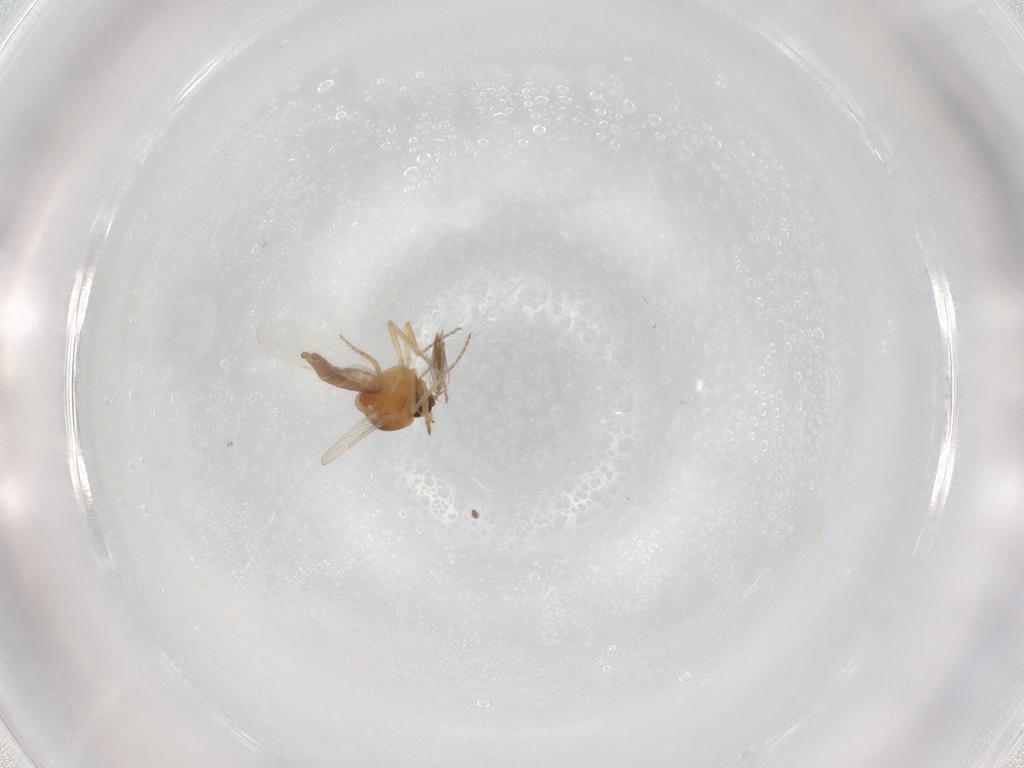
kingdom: Animalia
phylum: Arthropoda
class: Insecta
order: Diptera
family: Ceratopogonidae
